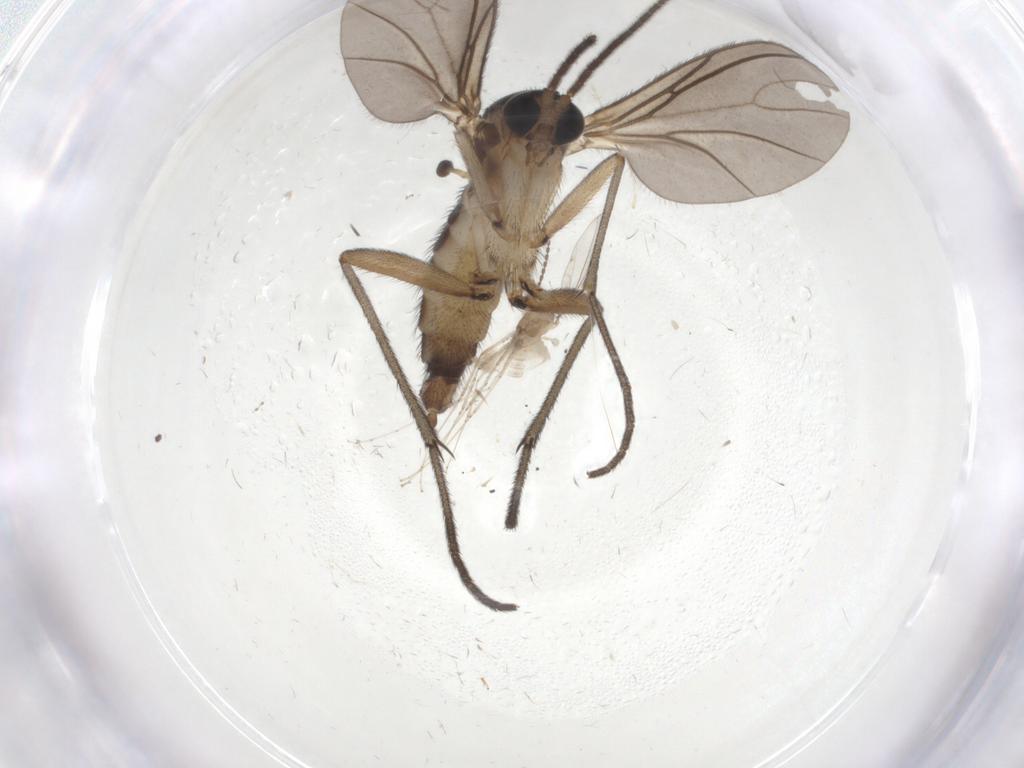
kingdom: Animalia
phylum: Arthropoda
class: Insecta
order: Diptera
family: Sciaridae
